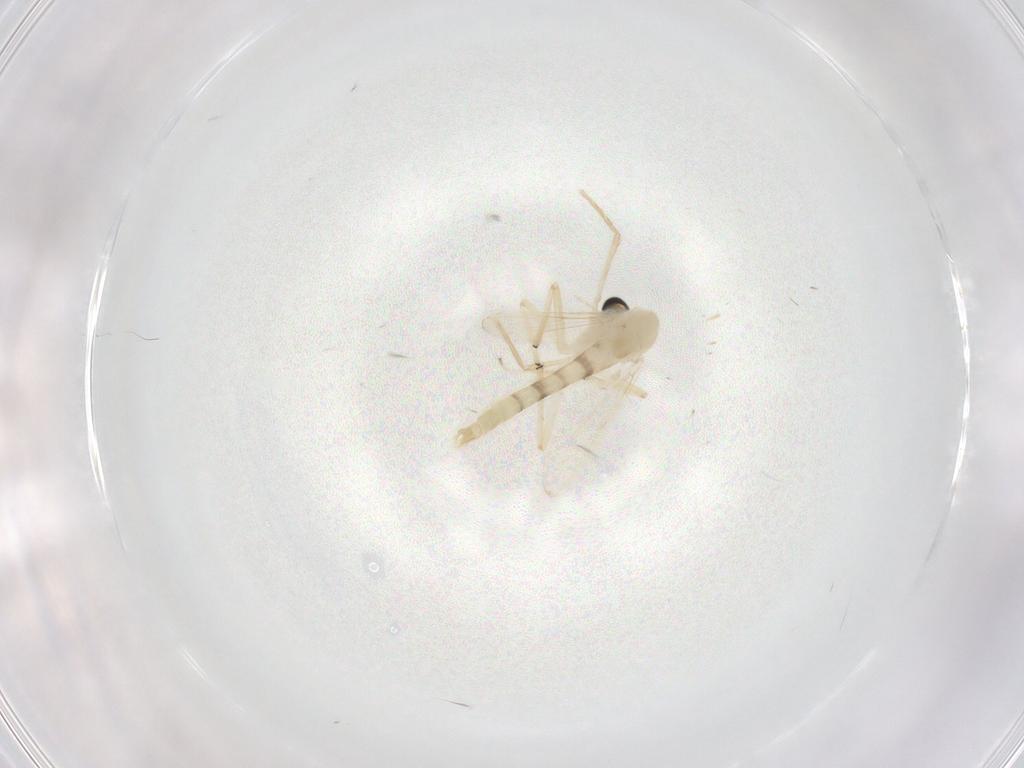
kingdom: Animalia
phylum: Arthropoda
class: Insecta
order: Diptera
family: Chironomidae
